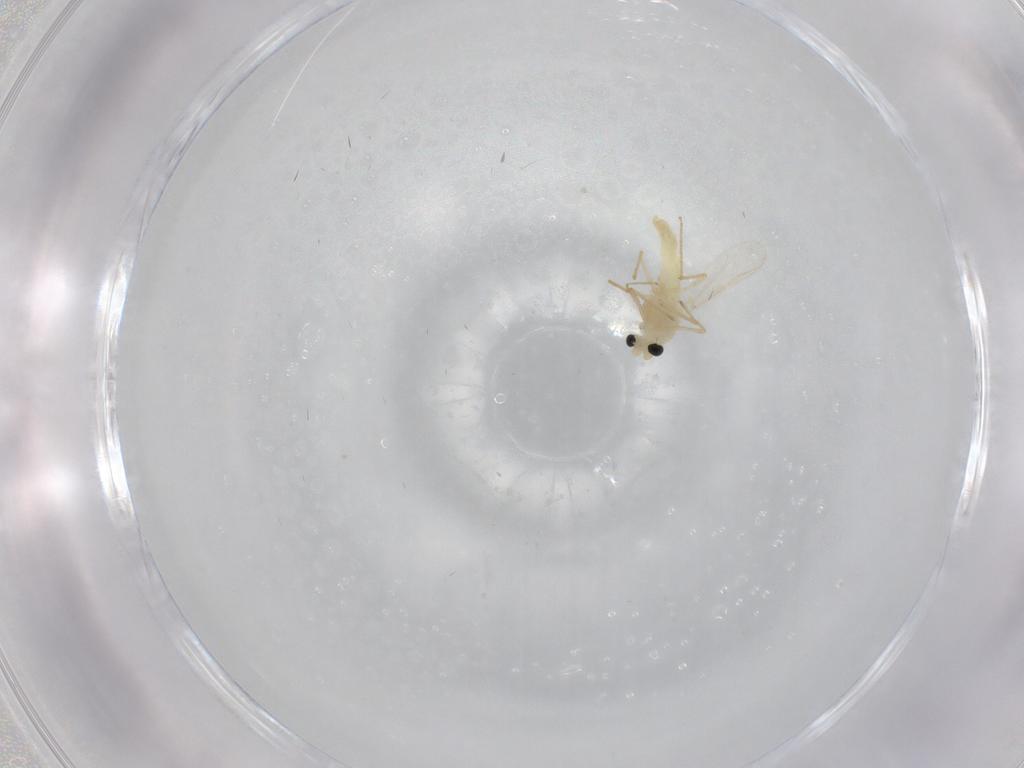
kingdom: Animalia
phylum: Arthropoda
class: Insecta
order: Diptera
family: Chironomidae
